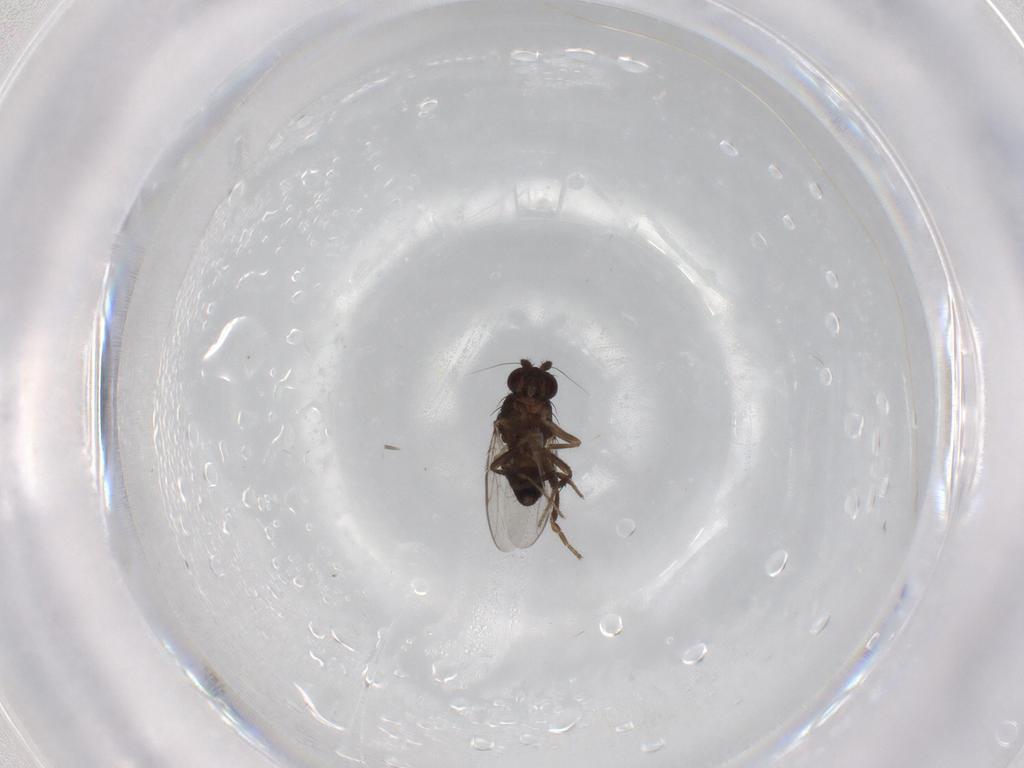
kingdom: Animalia
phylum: Arthropoda
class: Insecta
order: Diptera
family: Sphaeroceridae
